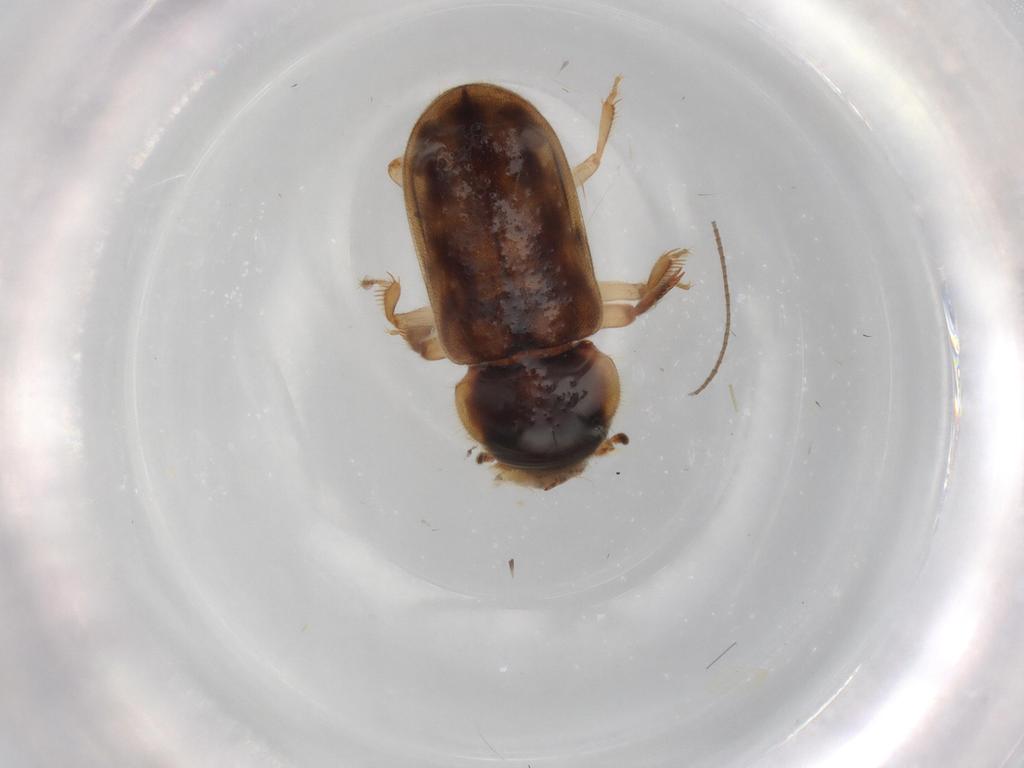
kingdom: Animalia
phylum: Arthropoda
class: Insecta
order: Coleoptera
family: Heteroceridae
